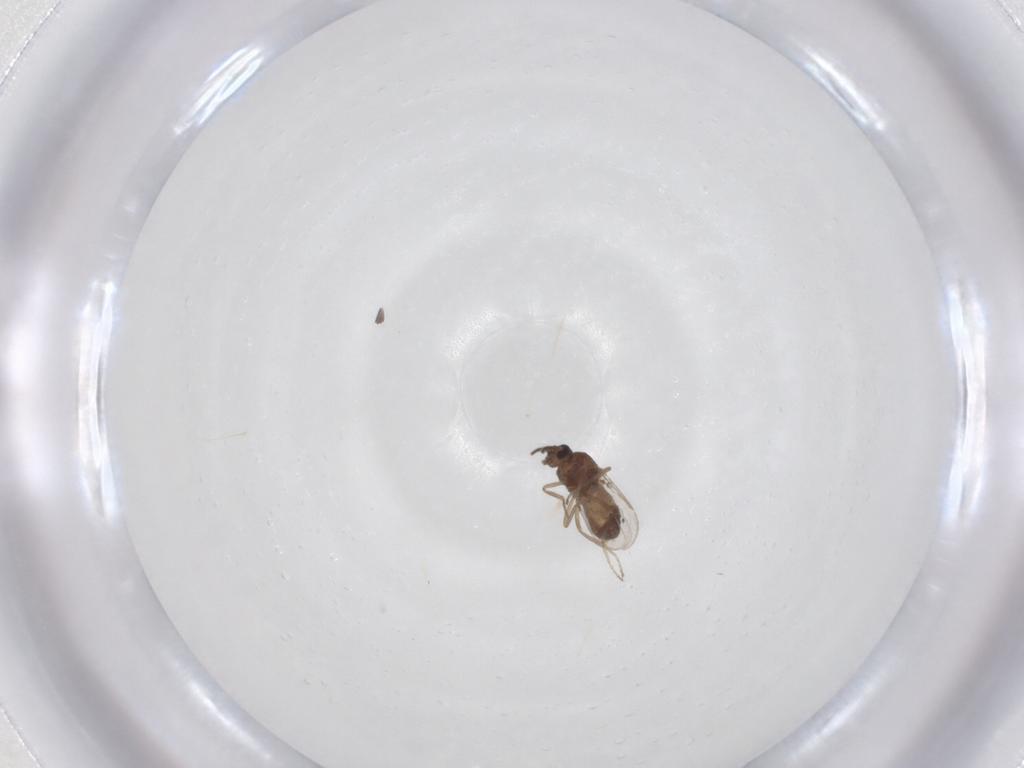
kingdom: Animalia
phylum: Arthropoda
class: Insecta
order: Diptera
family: Ceratopogonidae
